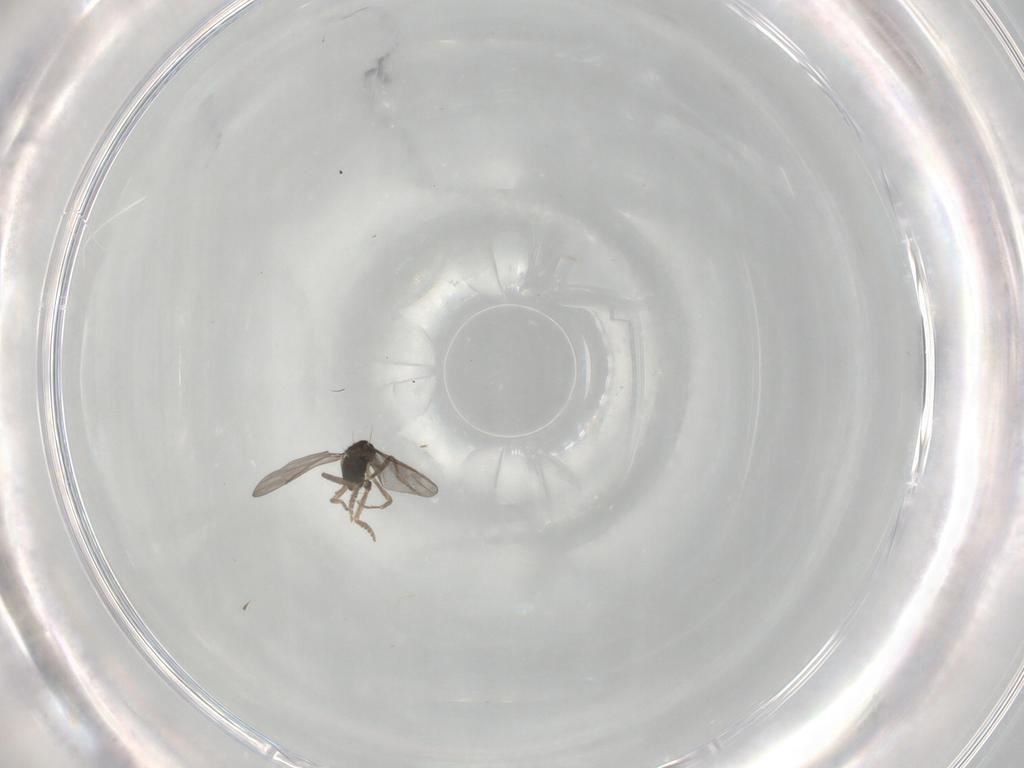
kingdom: Animalia
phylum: Arthropoda
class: Insecta
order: Diptera
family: Phoridae
